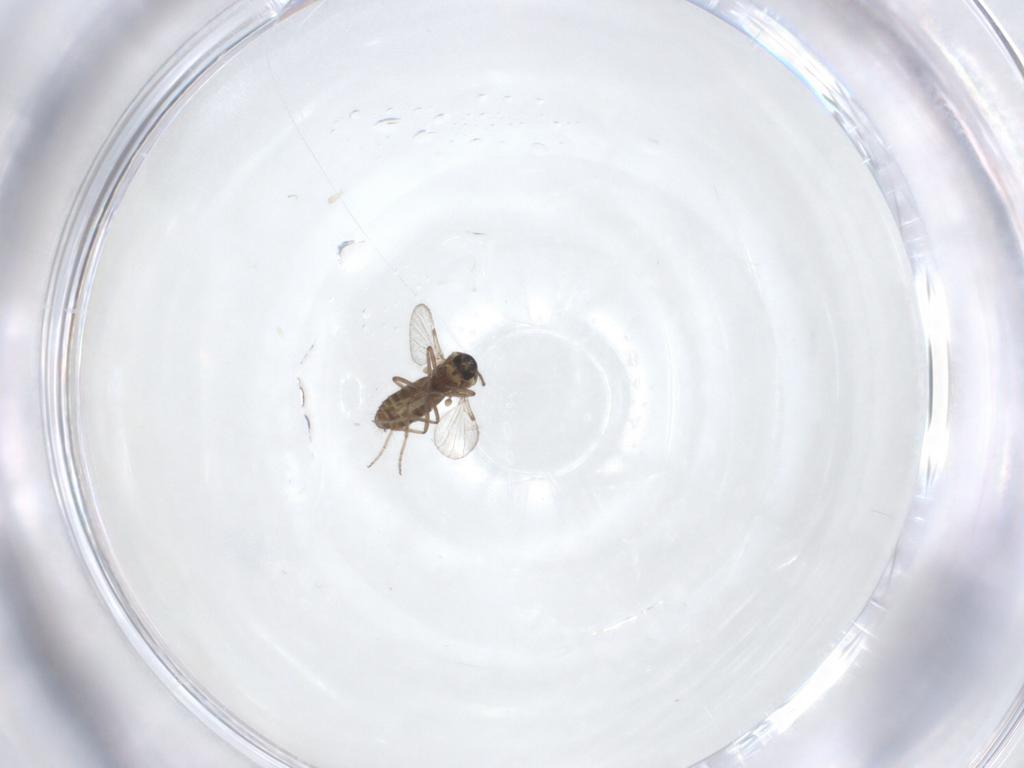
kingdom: Animalia
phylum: Arthropoda
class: Insecta
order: Diptera
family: Ceratopogonidae
